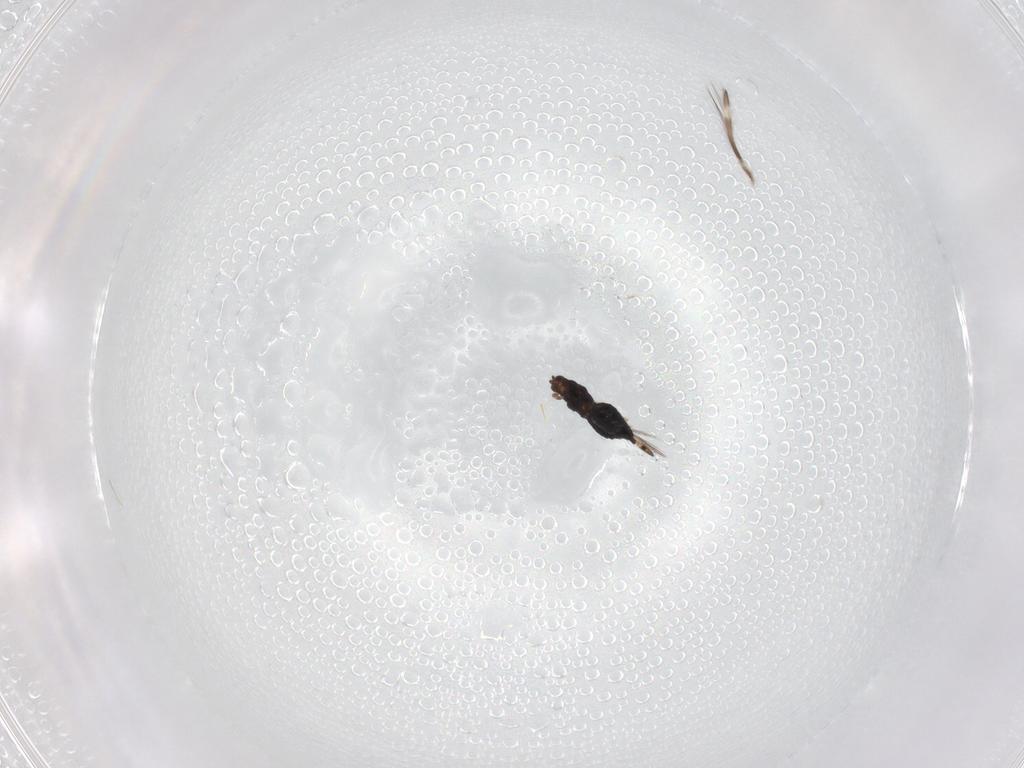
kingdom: Animalia
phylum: Arthropoda
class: Insecta
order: Thysanoptera
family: Thripidae
